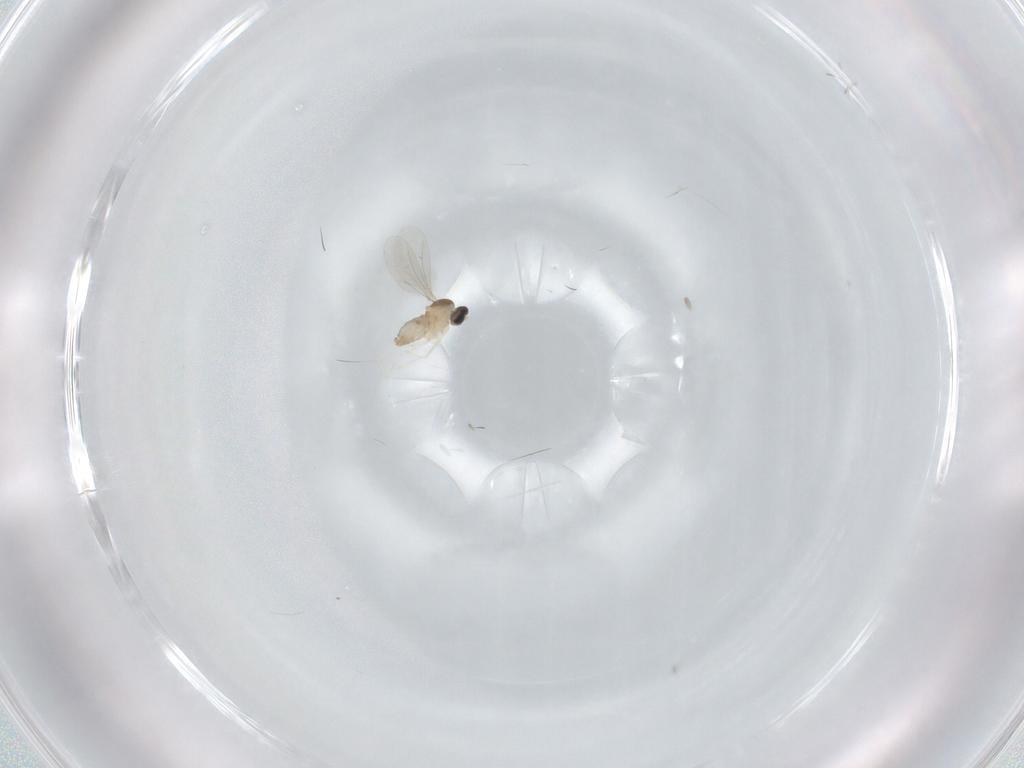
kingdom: Animalia
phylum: Arthropoda
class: Insecta
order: Diptera
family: Cecidomyiidae
